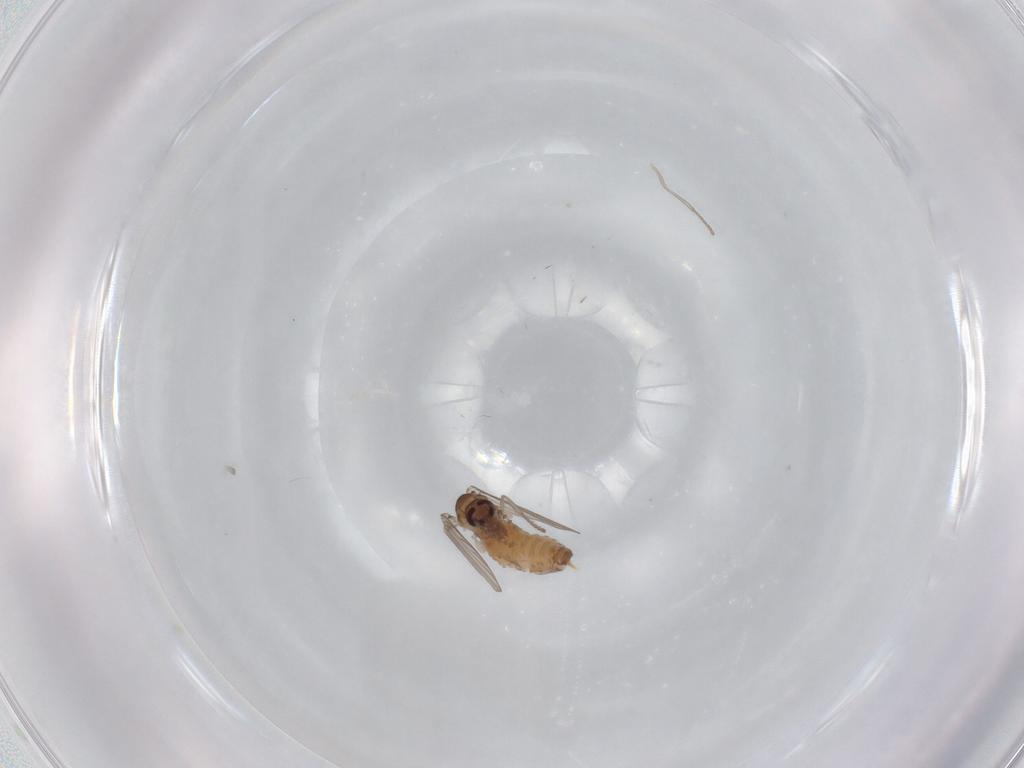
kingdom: Animalia
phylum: Arthropoda
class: Insecta
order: Diptera
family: Psychodidae
